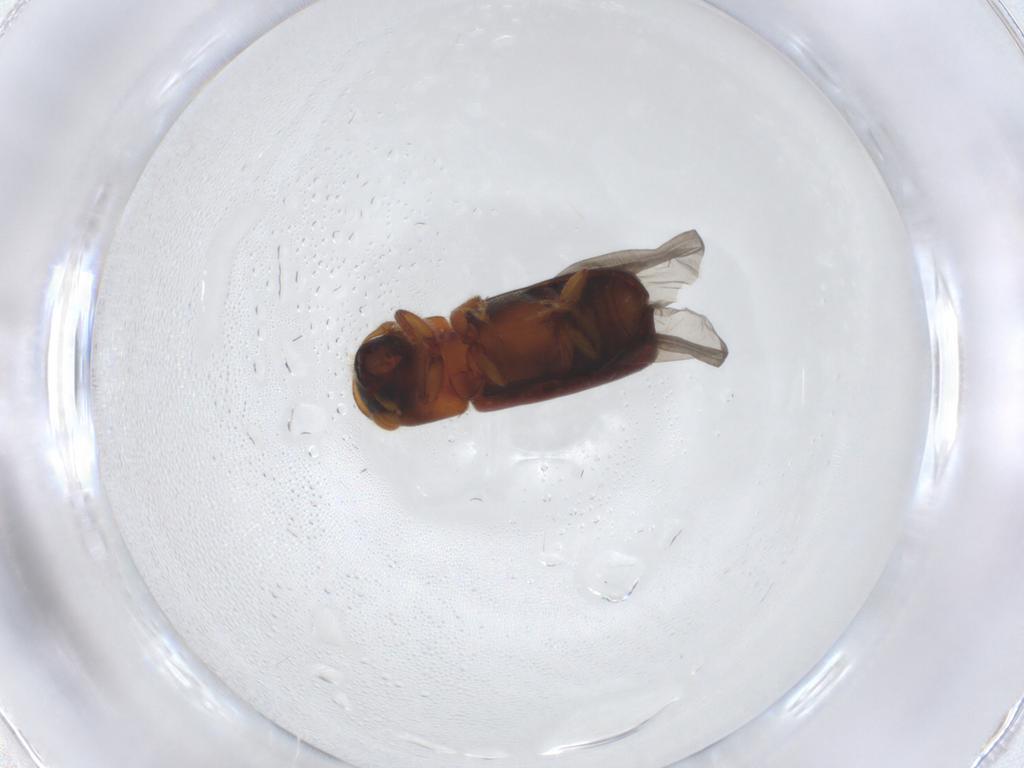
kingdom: Animalia
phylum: Arthropoda
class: Insecta
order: Coleoptera
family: Curculionidae
